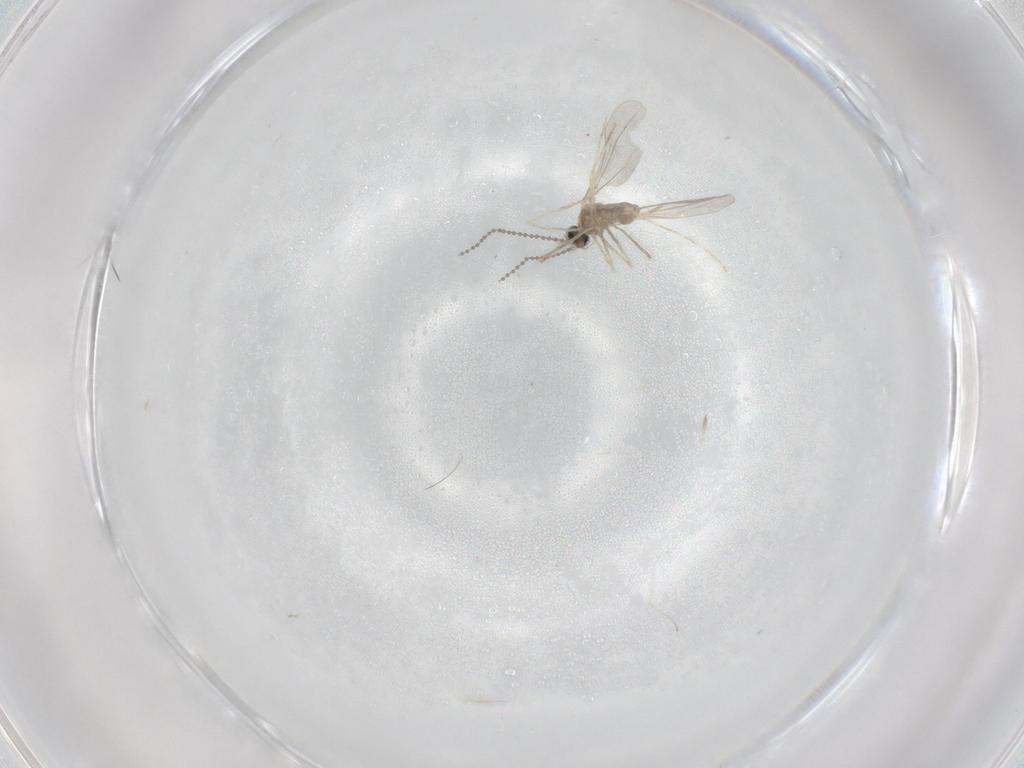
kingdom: Animalia
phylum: Arthropoda
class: Insecta
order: Diptera
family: Cecidomyiidae
